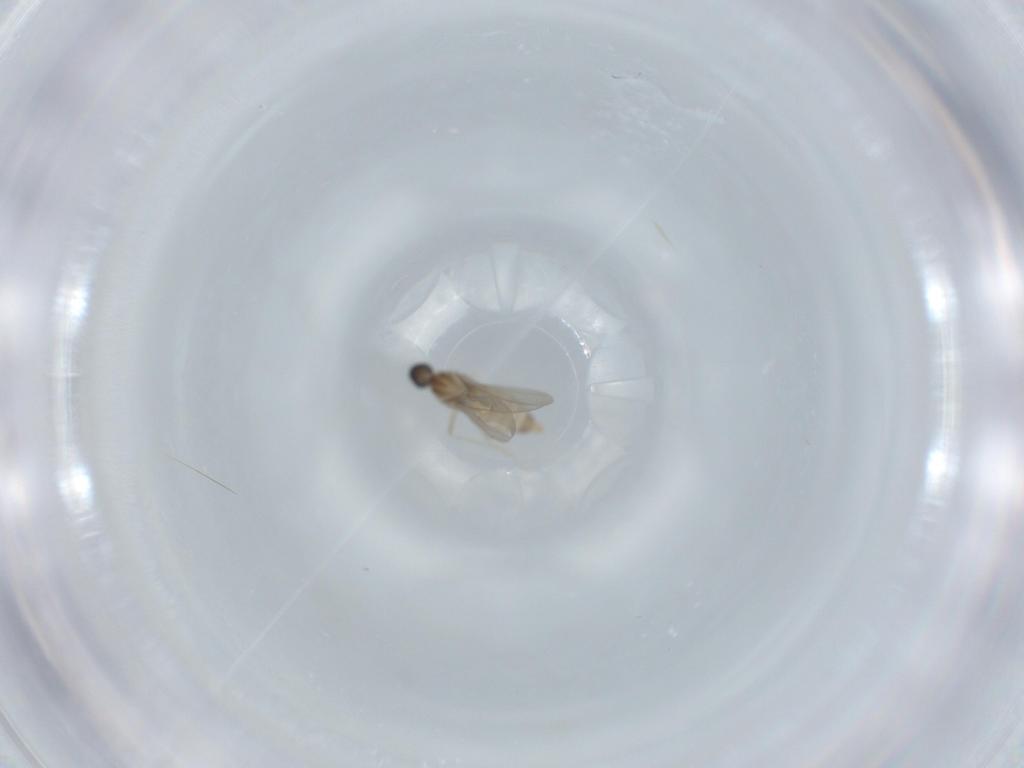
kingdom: Animalia
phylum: Arthropoda
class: Insecta
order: Diptera
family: Cecidomyiidae
